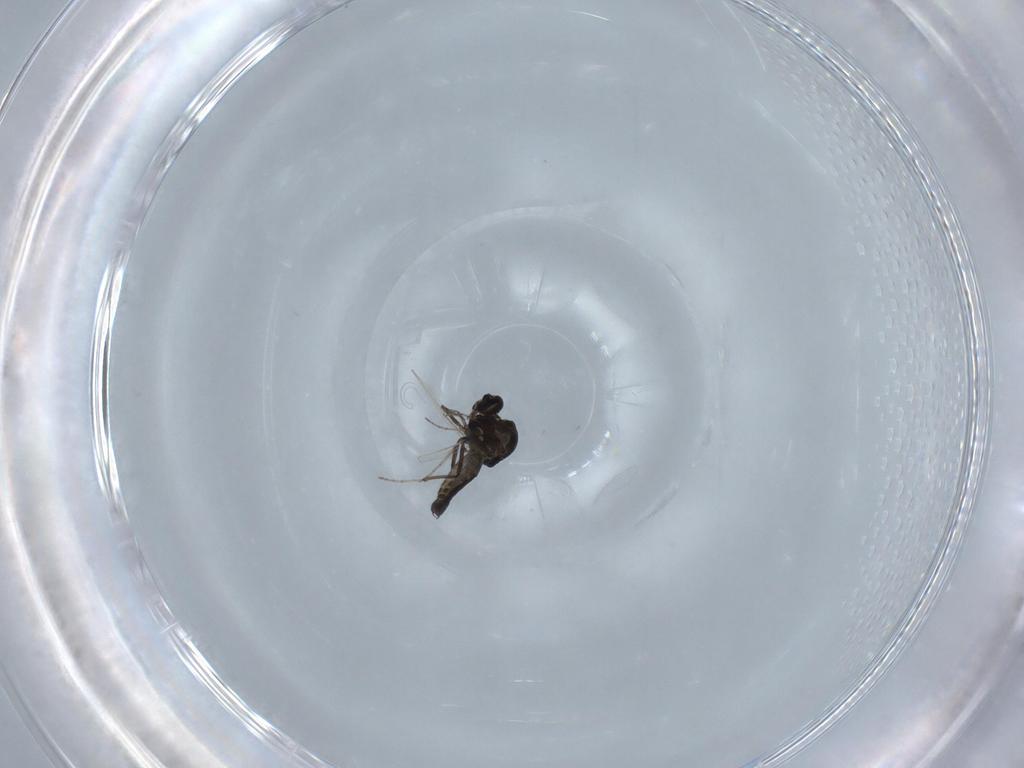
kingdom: Animalia
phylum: Arthropoda
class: Insecta
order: Diptera
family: Ceratopogonidae
